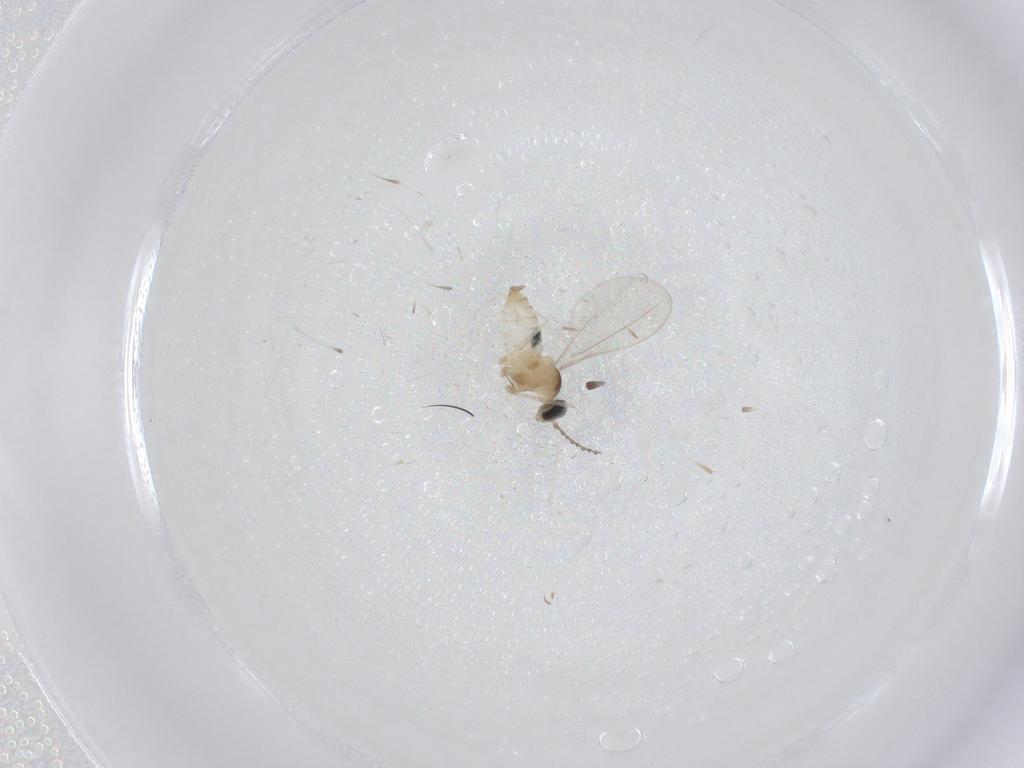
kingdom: Animalia
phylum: Arthropoda
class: Insecta
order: Diptera
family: Cecidomyiidae
